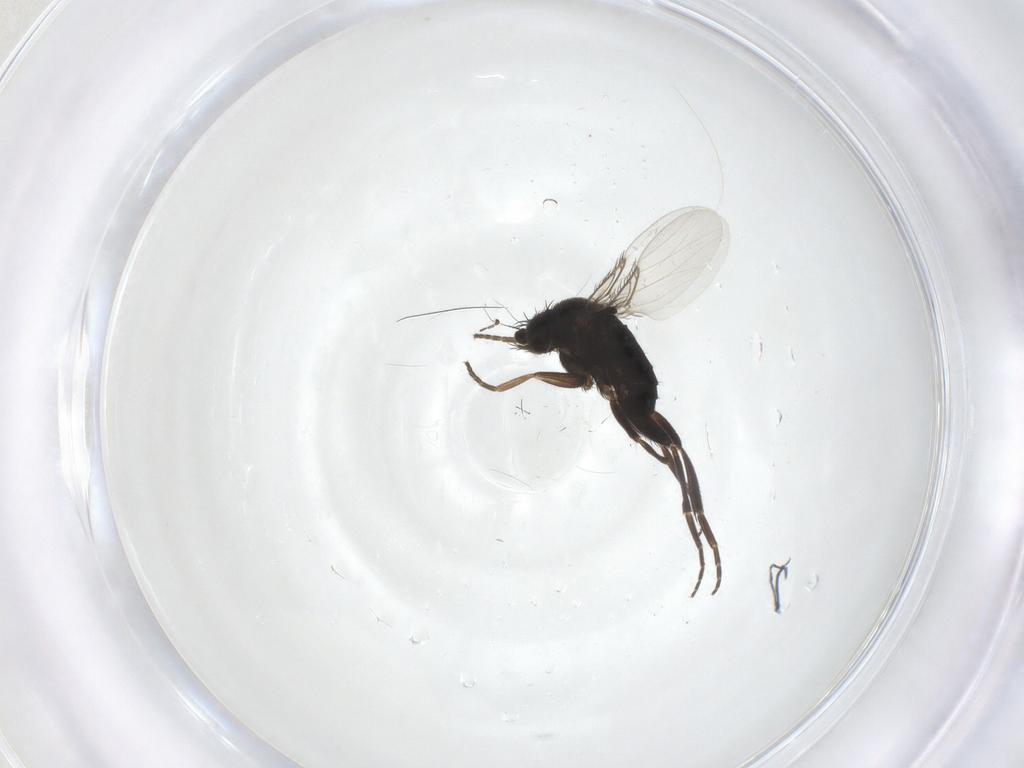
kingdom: Animalia
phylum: Arthropoda
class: Insecta
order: Diptera
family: Phoridae
